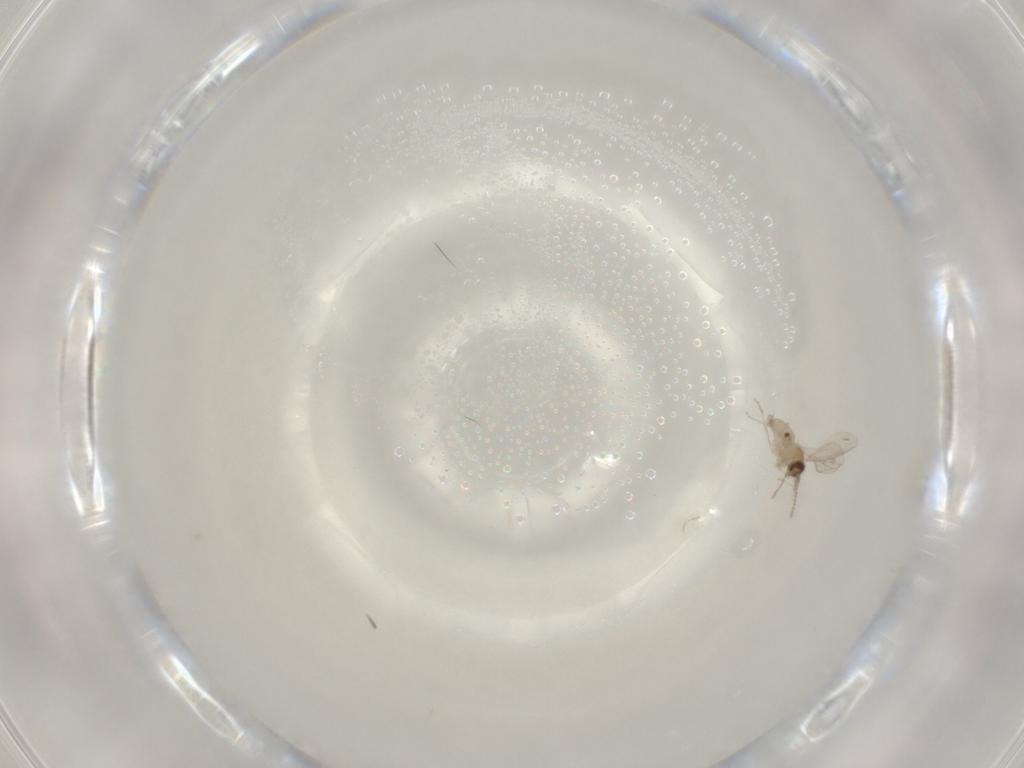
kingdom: Animalia
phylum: Arthropoda
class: Insecta
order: Diptera
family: Cecidomyiidae
